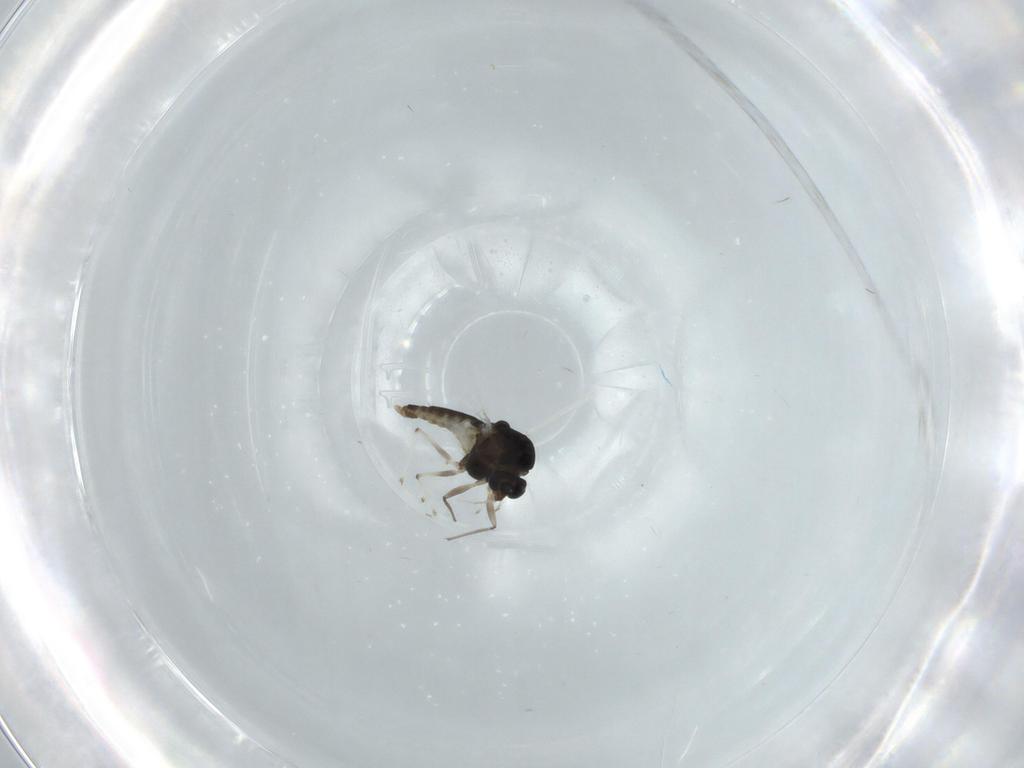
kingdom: Animalia
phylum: Arthropoda
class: Insecta
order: Diptera
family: Chironomidae
